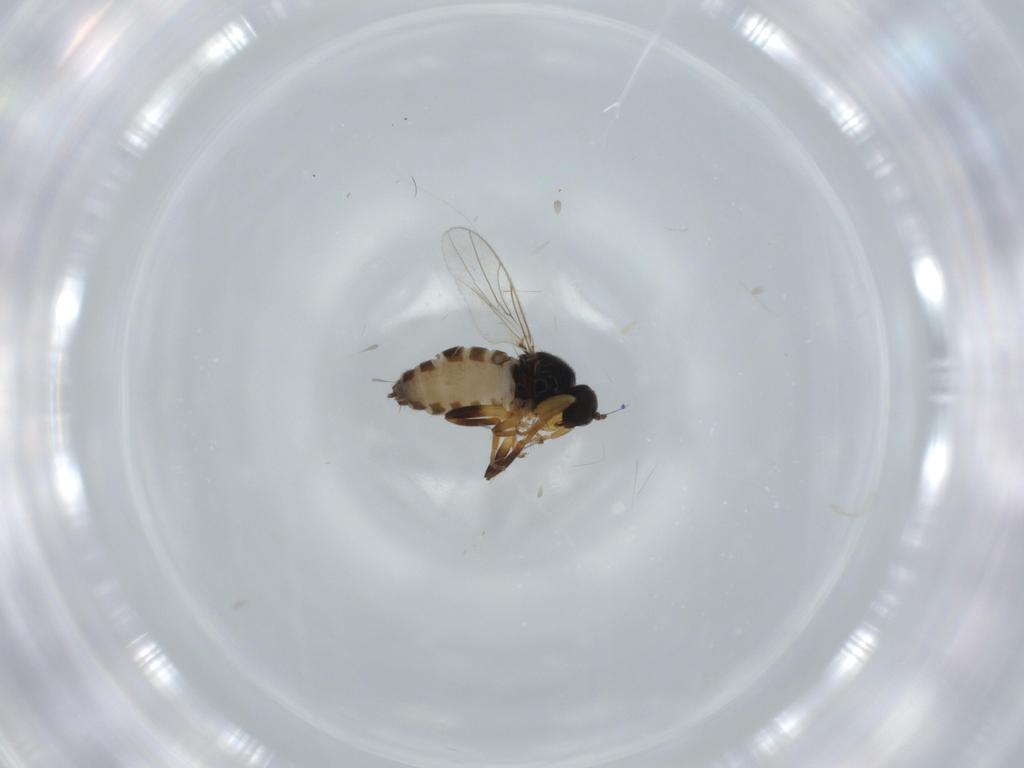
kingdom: Animalia
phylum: Arthropoda
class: Insecta
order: Diptera
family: Hybotidae
